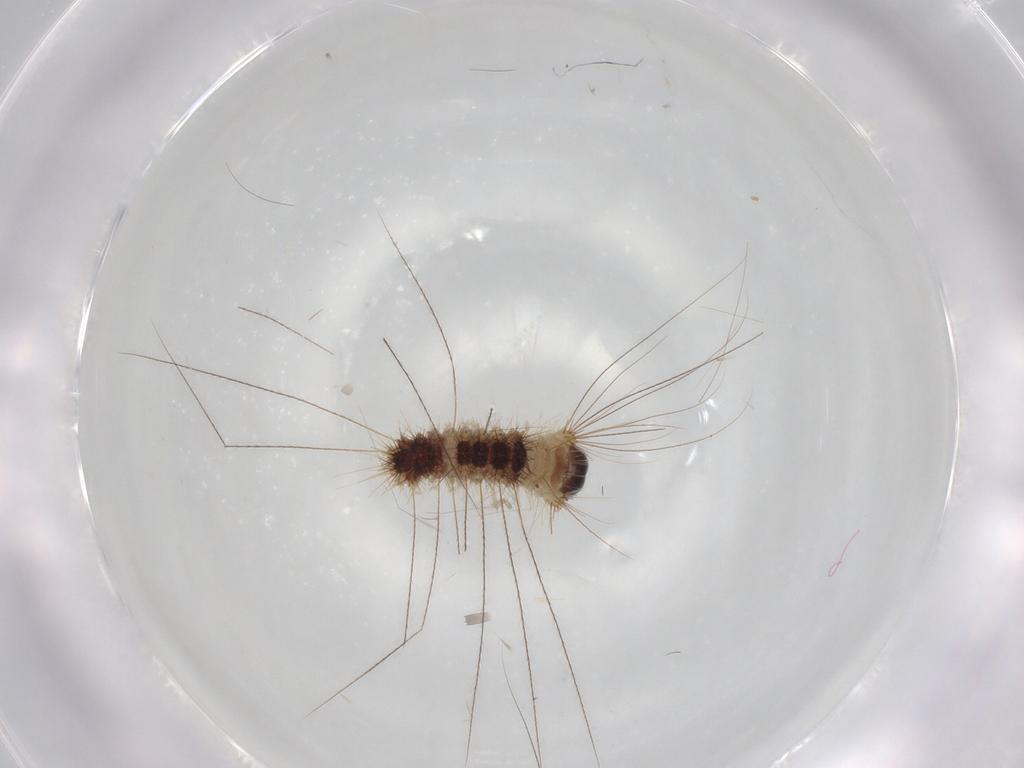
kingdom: Animalia
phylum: Arthropoda
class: Insecta
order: Lepidoptera
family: Erebidae
